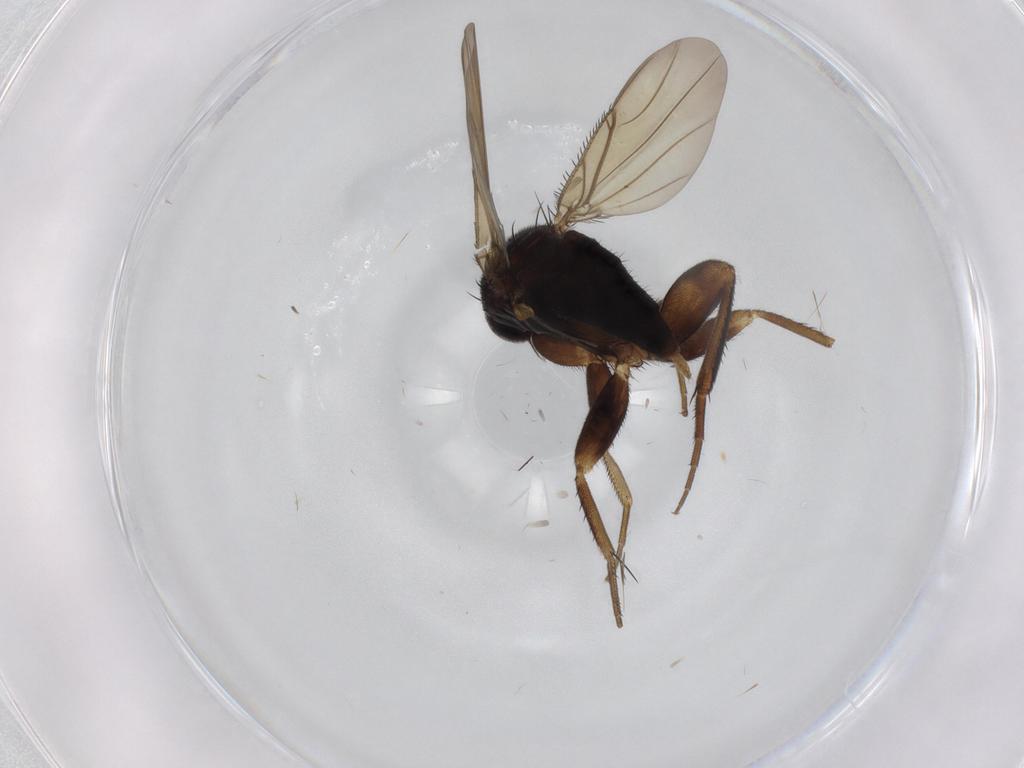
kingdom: Animalia
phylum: Arthropoda
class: Insecta
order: Diptera
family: Phoridae
